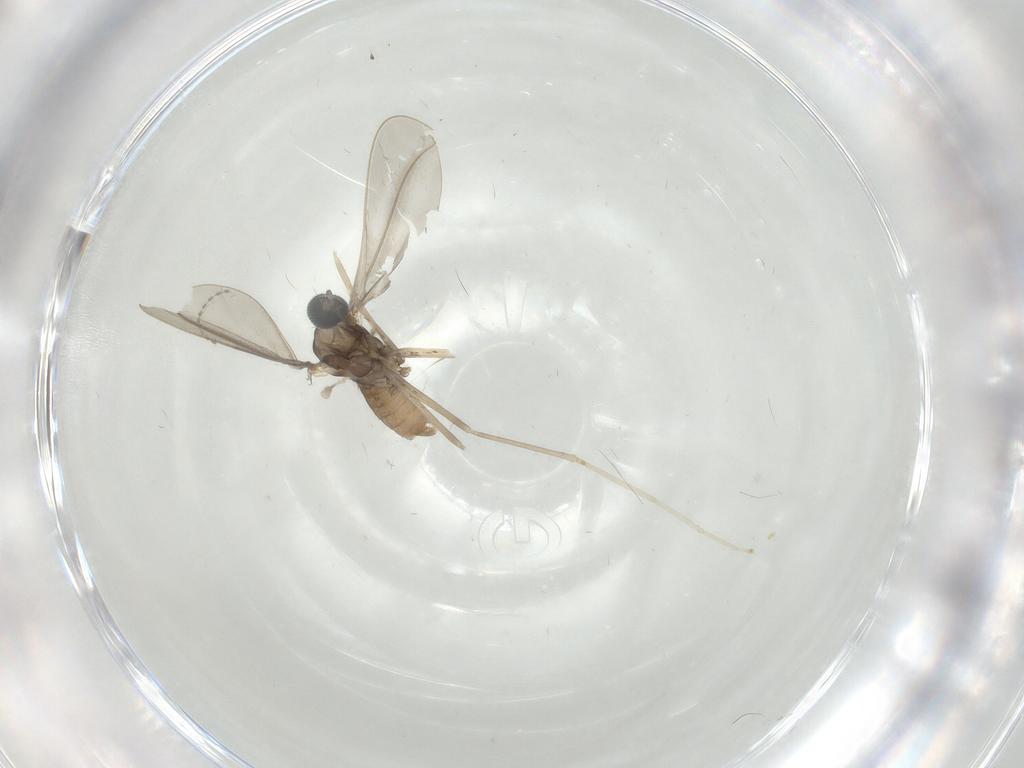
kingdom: Animalia
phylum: Arthropoda
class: Insecta
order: Diptera
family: Cecidomyiidae
